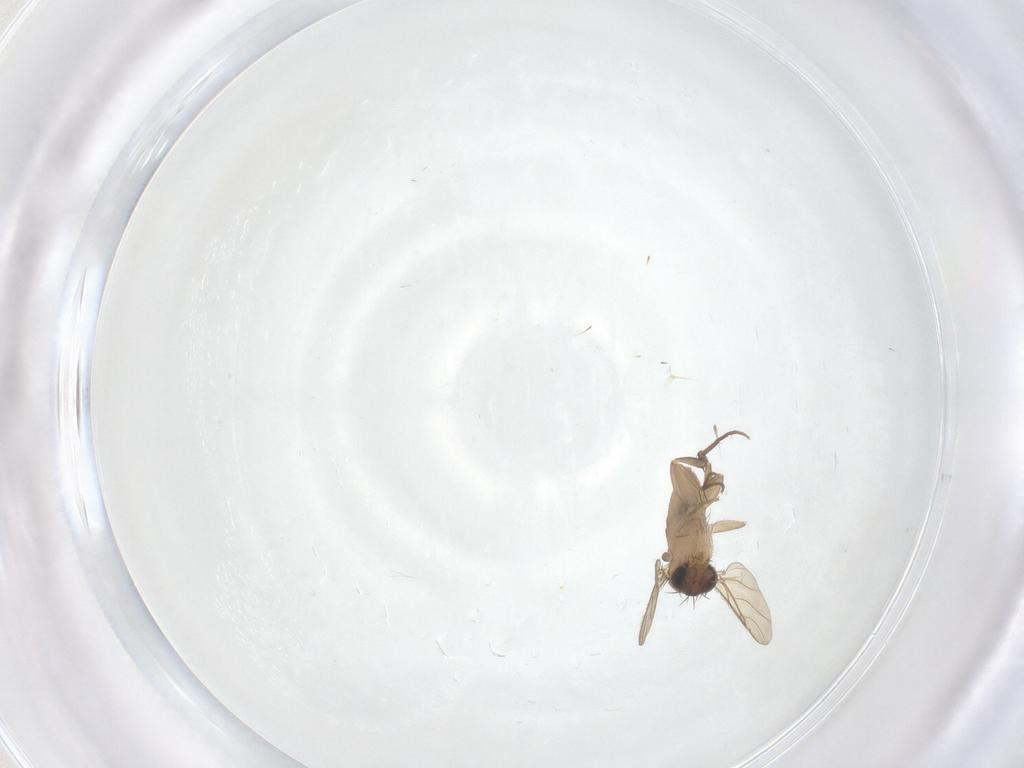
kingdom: Animalia
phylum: Arthropoda
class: Insecta
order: Diptera
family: Phoridae
